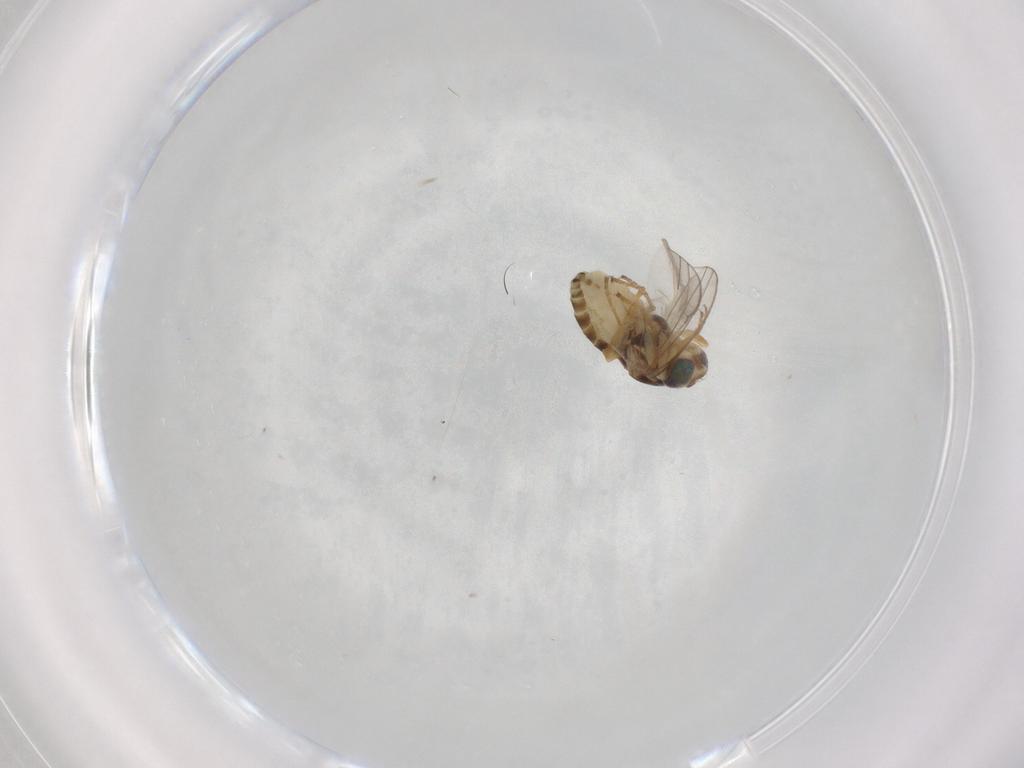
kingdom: Animalia
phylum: Arthropoda
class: Insecta
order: Diptera
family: Chyromyidae
